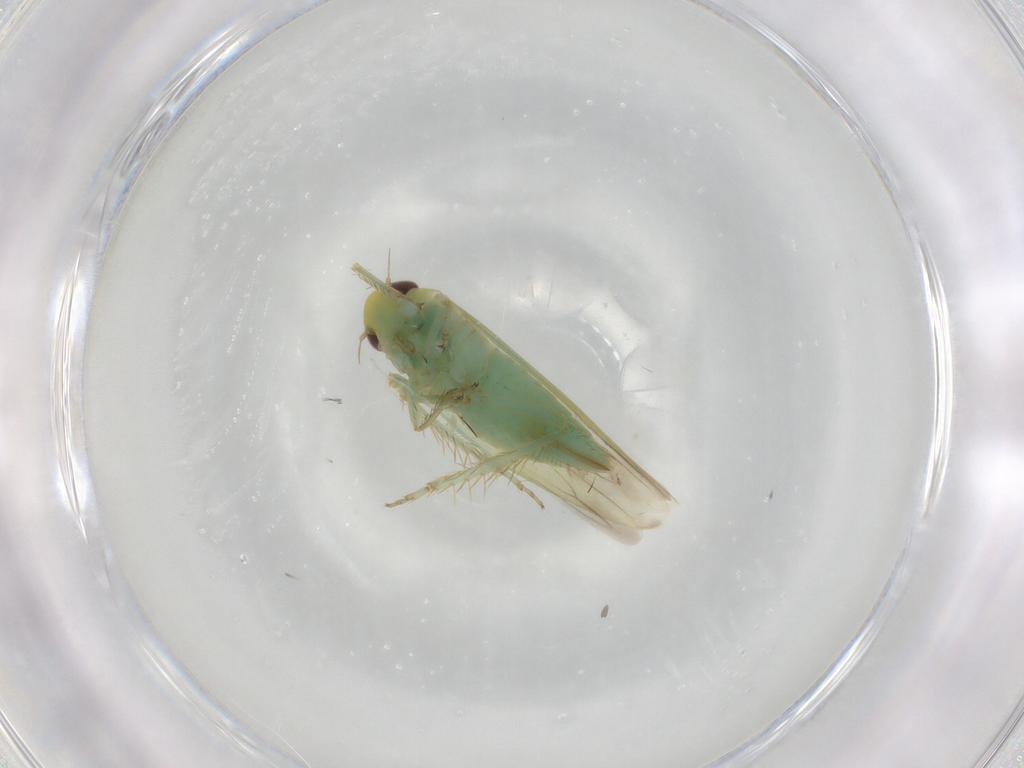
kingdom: Animalia
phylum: Arthropoda
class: Insecta
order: Hemiptera
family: Cicadellidae
